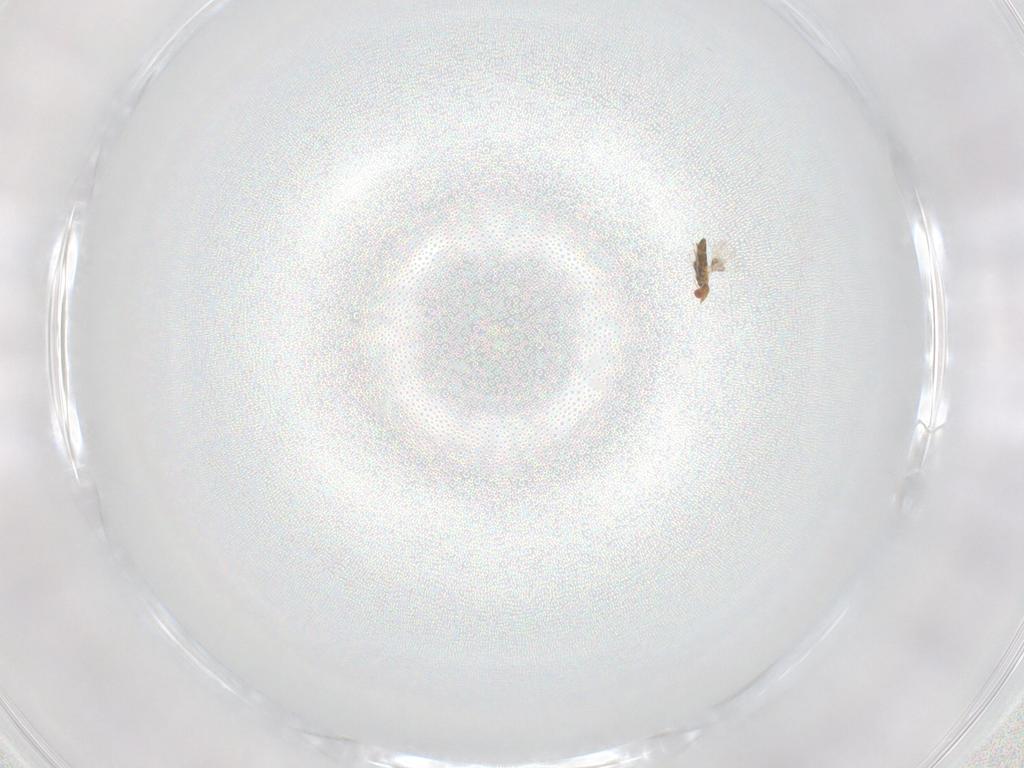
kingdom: Animalia
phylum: Arthropoda
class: Insecta
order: Hymenoptera
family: Trichogrammatidae
